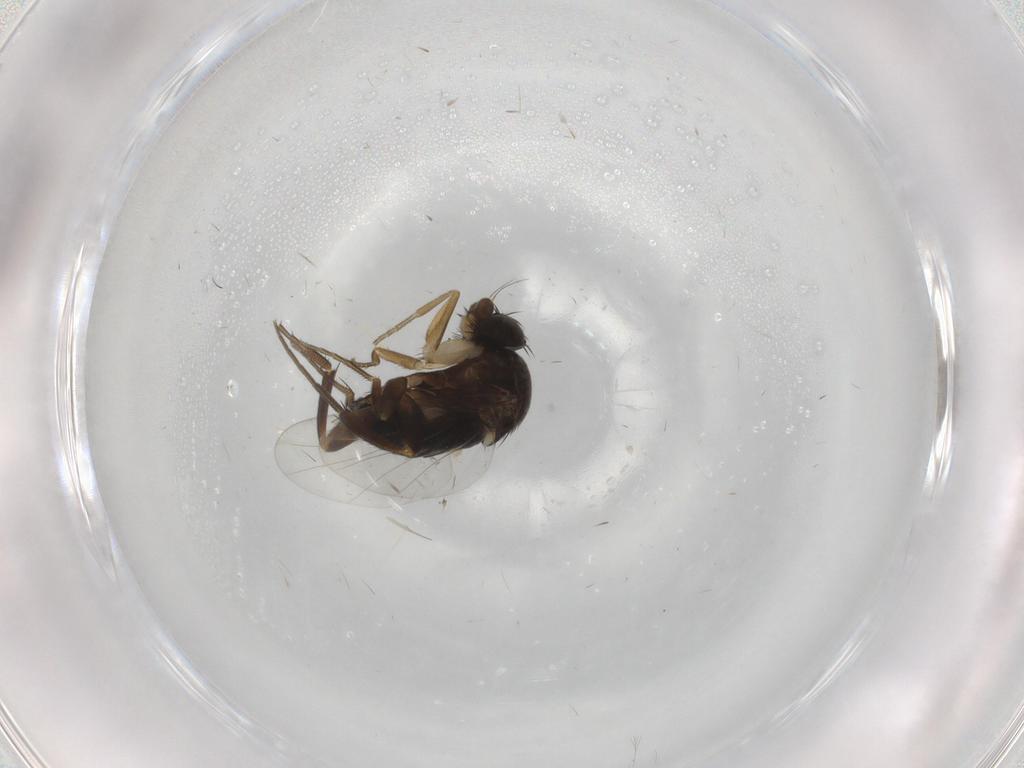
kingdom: Animalia
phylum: Arthropoda
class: Insecta
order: Diptera
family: Phoridae
